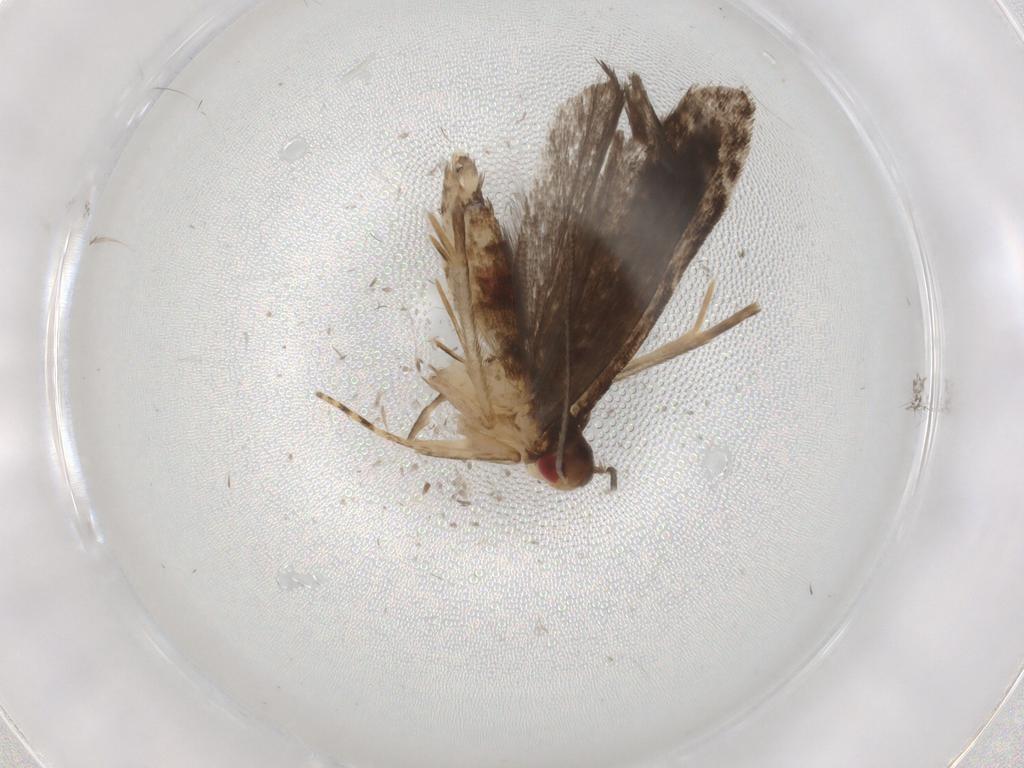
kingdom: Animalia
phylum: Arthropoda
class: Insecta
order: Lepidoptera
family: Gelechiidae
